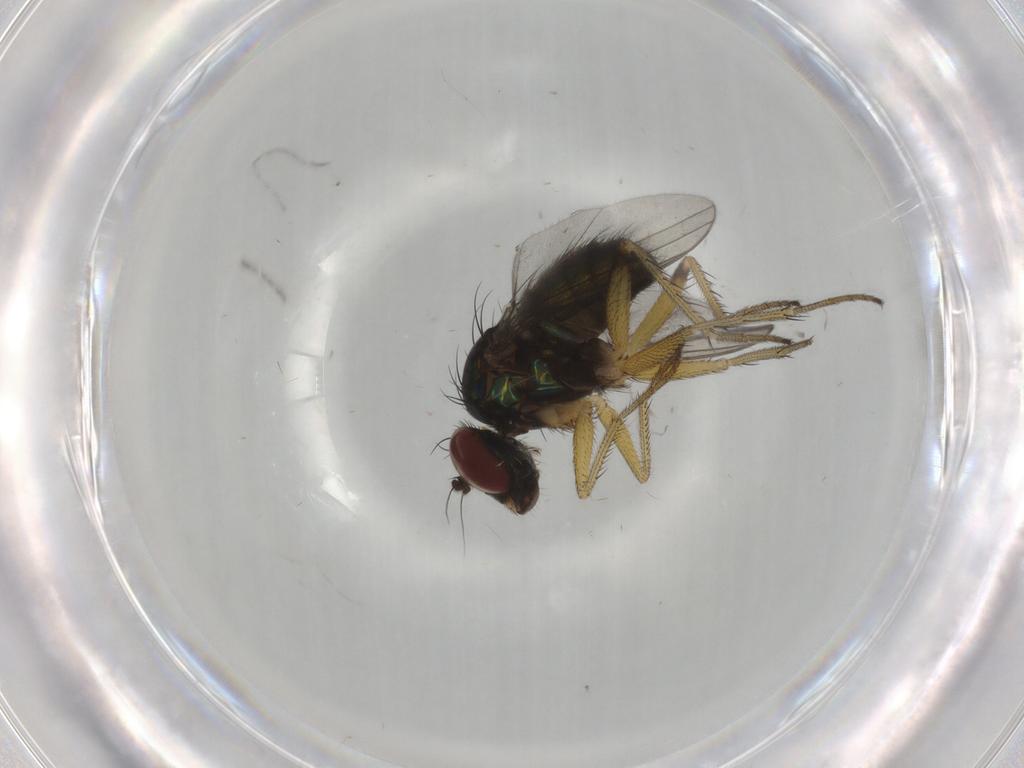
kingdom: Animalia
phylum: Arthropoda
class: Insecta
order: Diptera
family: Dolichopodidae
